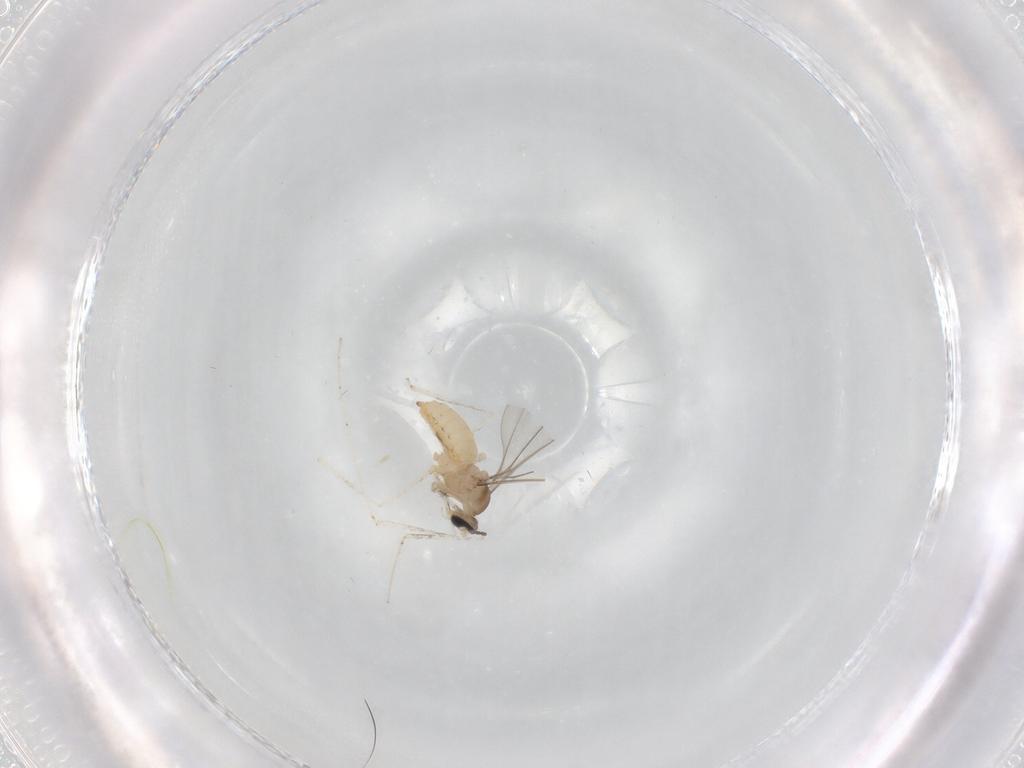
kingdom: Animalia
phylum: Arthropoda
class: Insecta
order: Diptera
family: Cecidomyiidae
